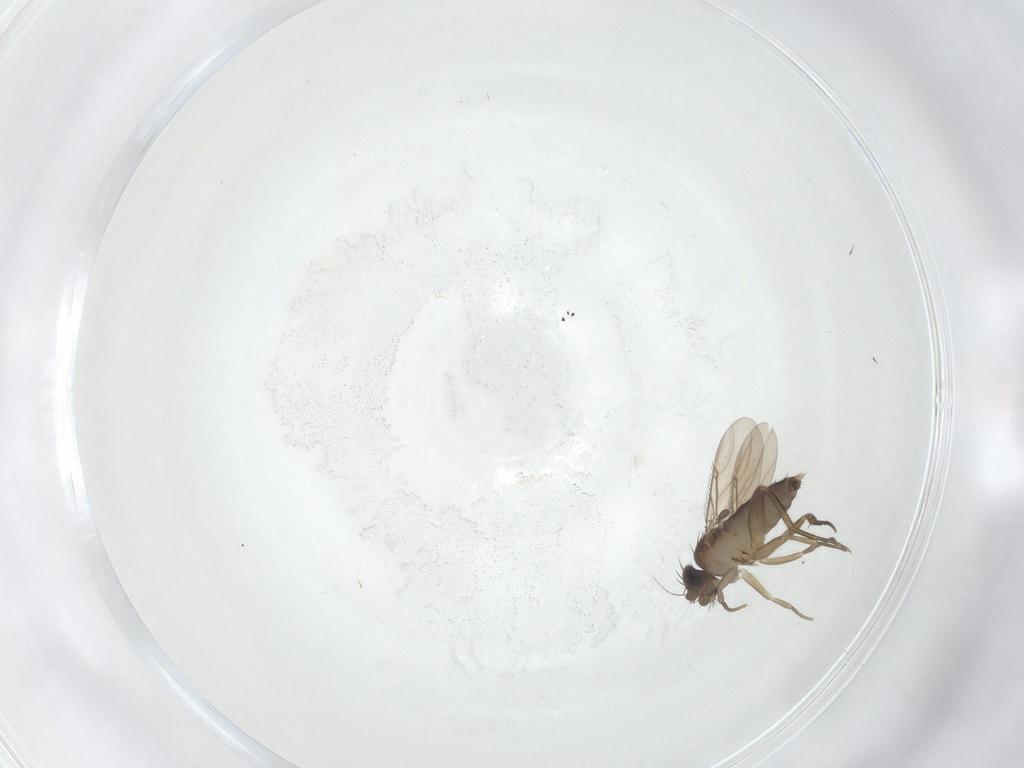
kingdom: Animalia
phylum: Arthropoda
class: Insecta
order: Diptera
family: Phoridae
